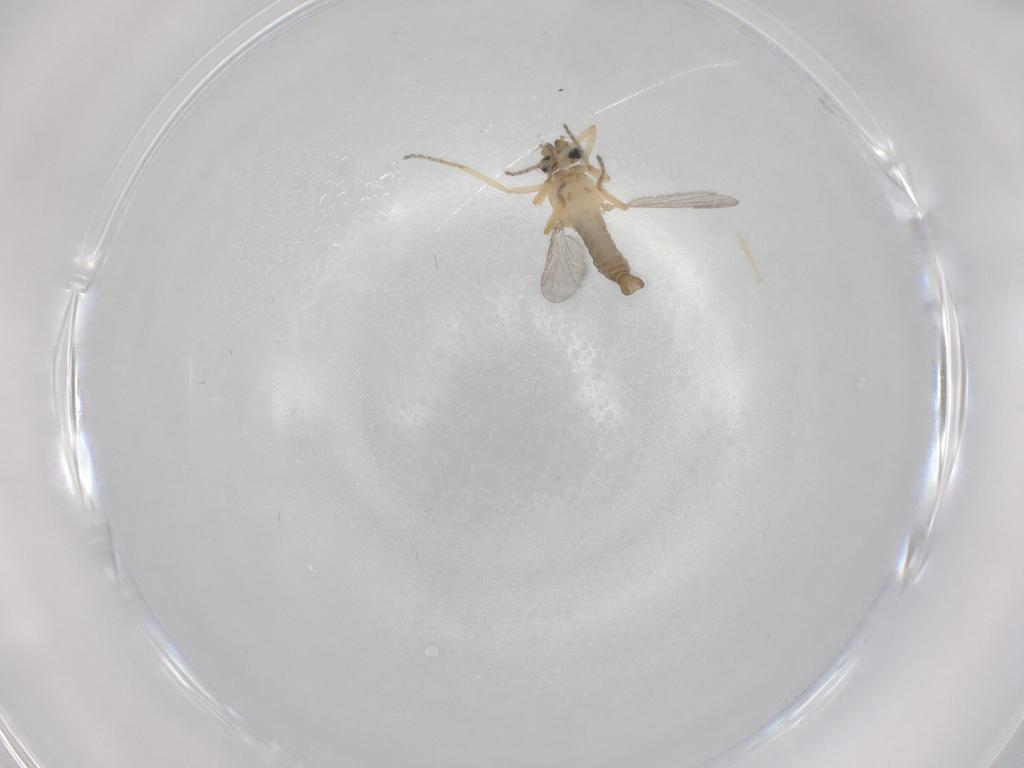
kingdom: Animalia
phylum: Arthropoda
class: Insecta
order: Diptera
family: Ceratopogonidae
